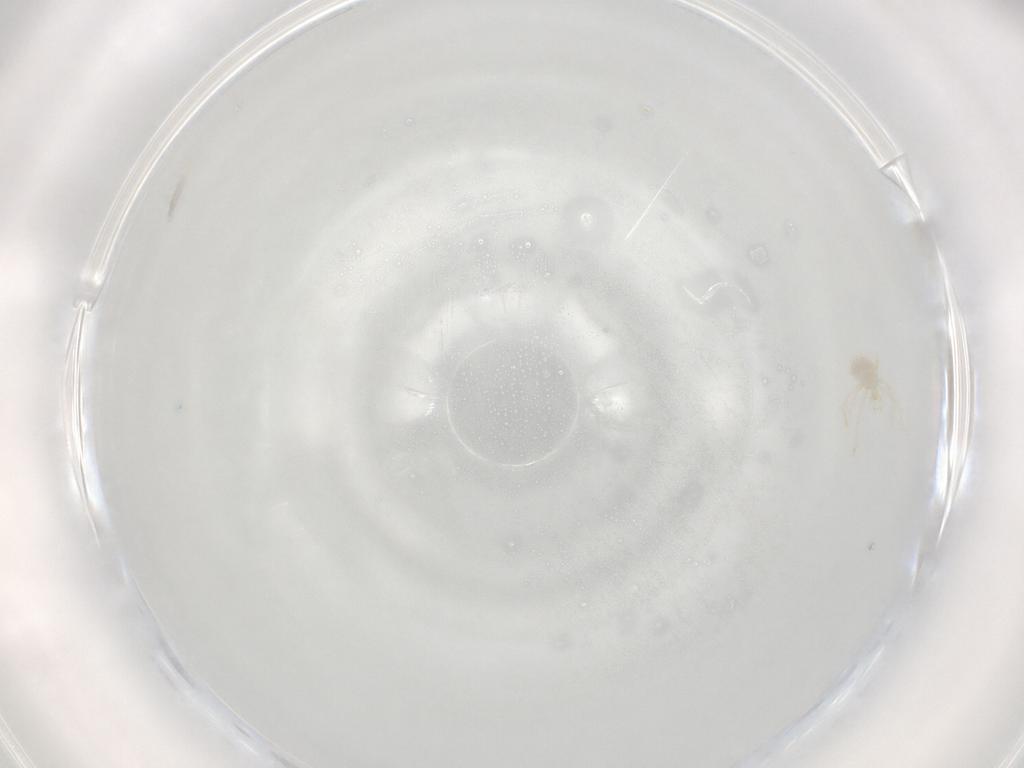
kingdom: Animalia
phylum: Arthropoda
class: Arachnida
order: Trombidiformes
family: Erythraeidae
